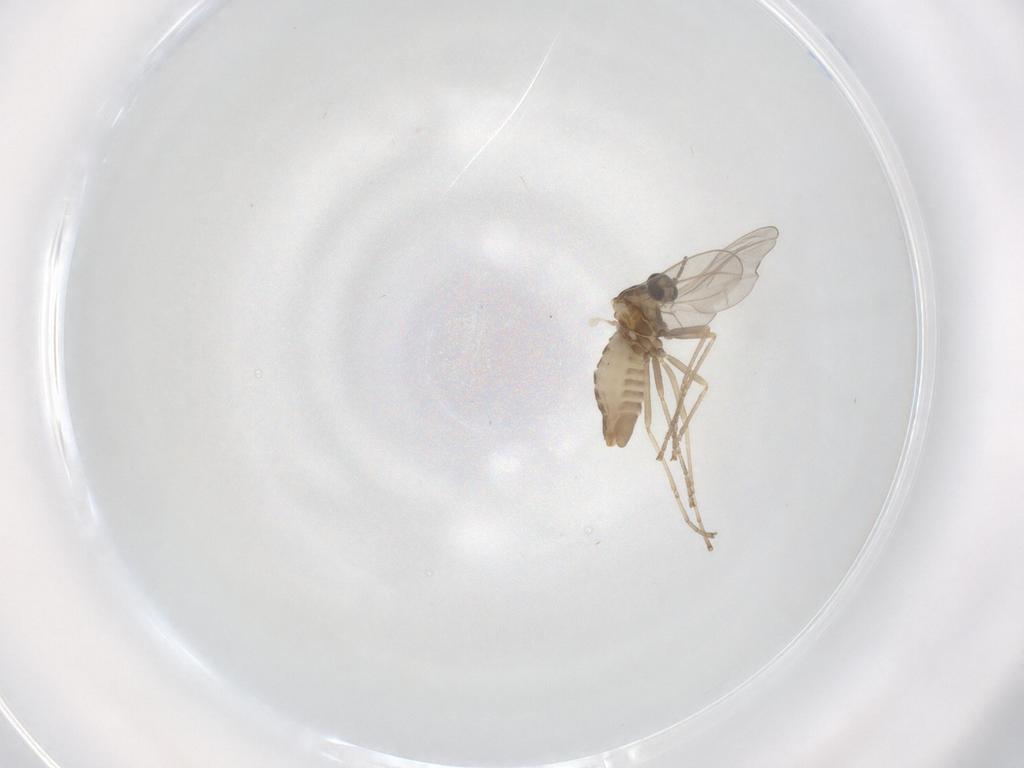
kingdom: Animalia
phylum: Arthropoda
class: Insecta
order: Diptera
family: Cecidomyiidae
